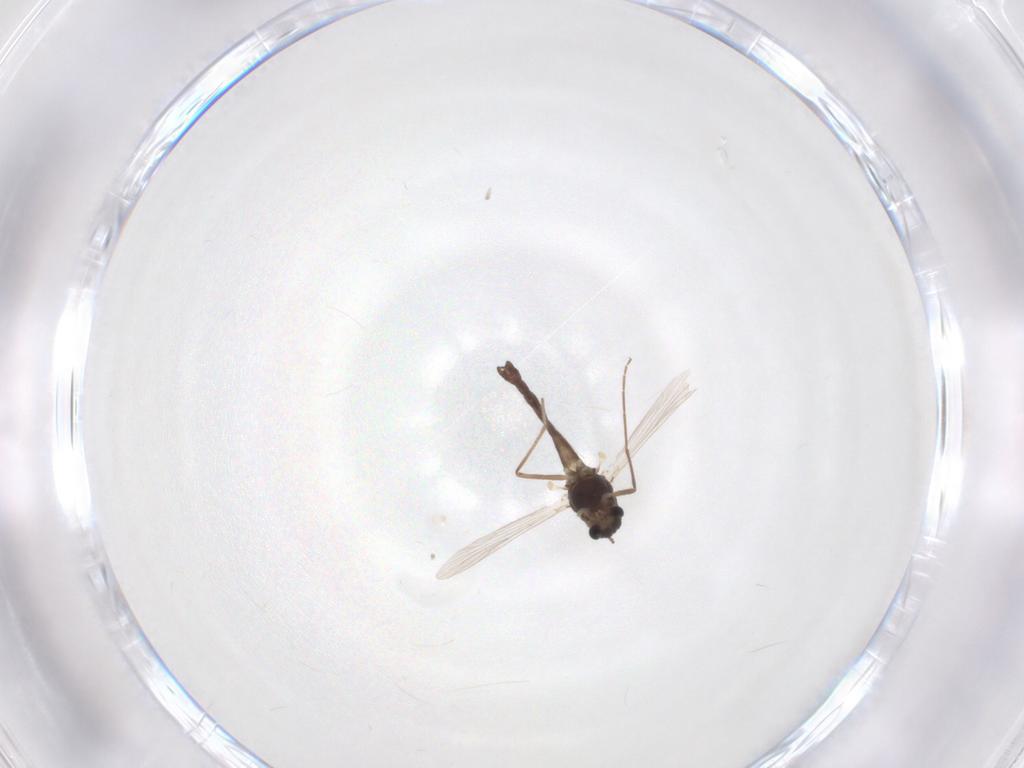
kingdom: Animalia
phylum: Arthropoda
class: Insecta
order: Diptera
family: Chironomidae
